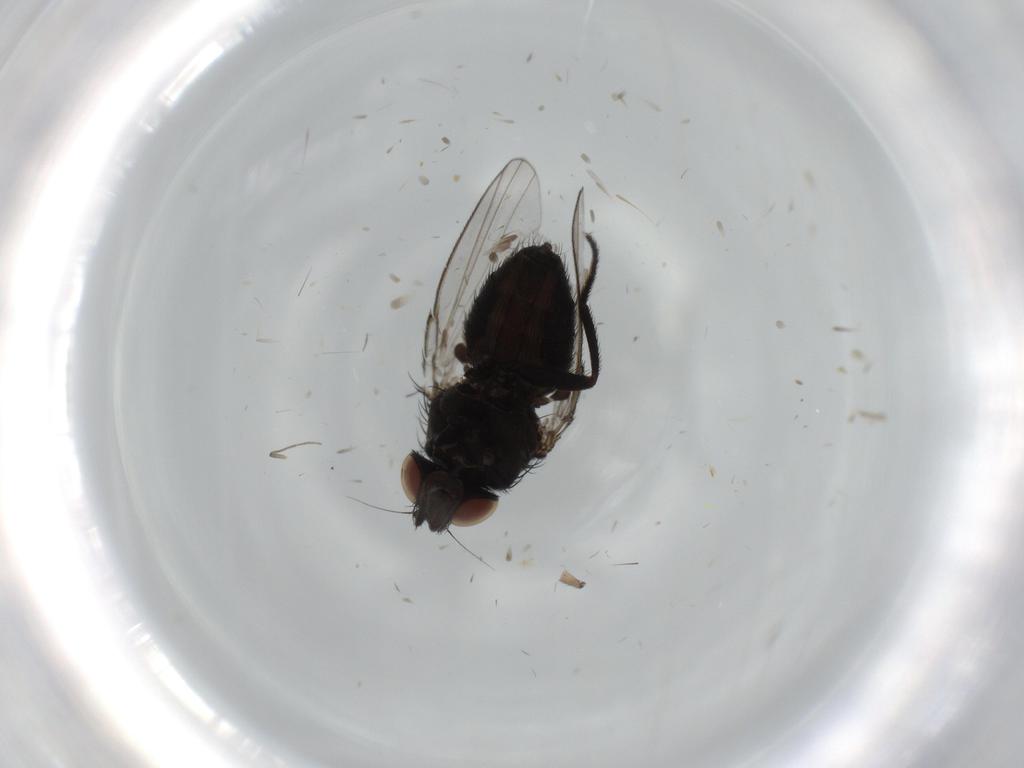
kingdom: Animalia
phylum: Arthropoda
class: Insecta
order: Diptera
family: Milichiidae
